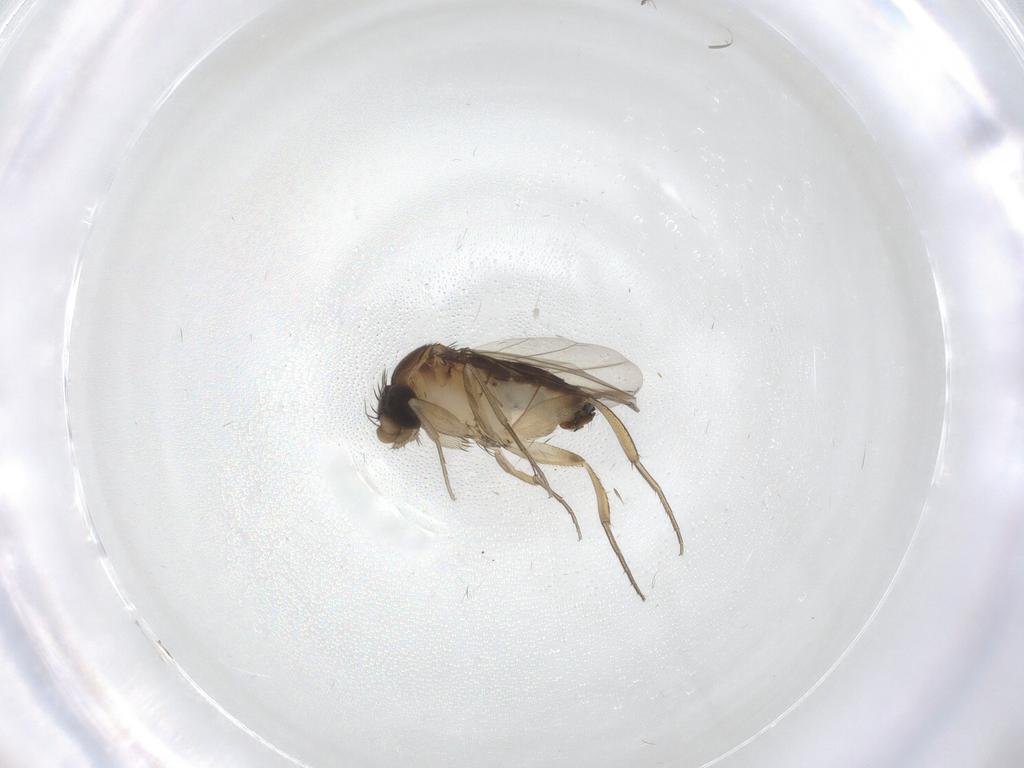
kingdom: Animalia
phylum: Arthropoda
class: Insecta
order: Diptera
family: Phoridae
